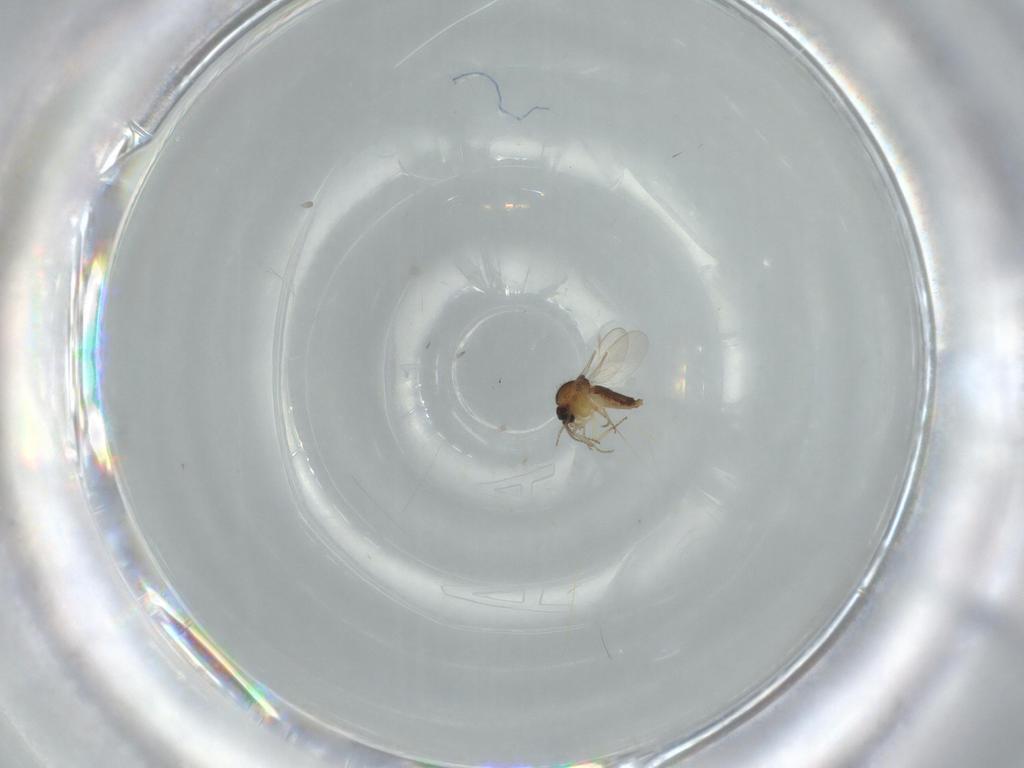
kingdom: Animalia
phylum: Arthropoda
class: Insecta
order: Diptera
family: Ceratopogonidae
